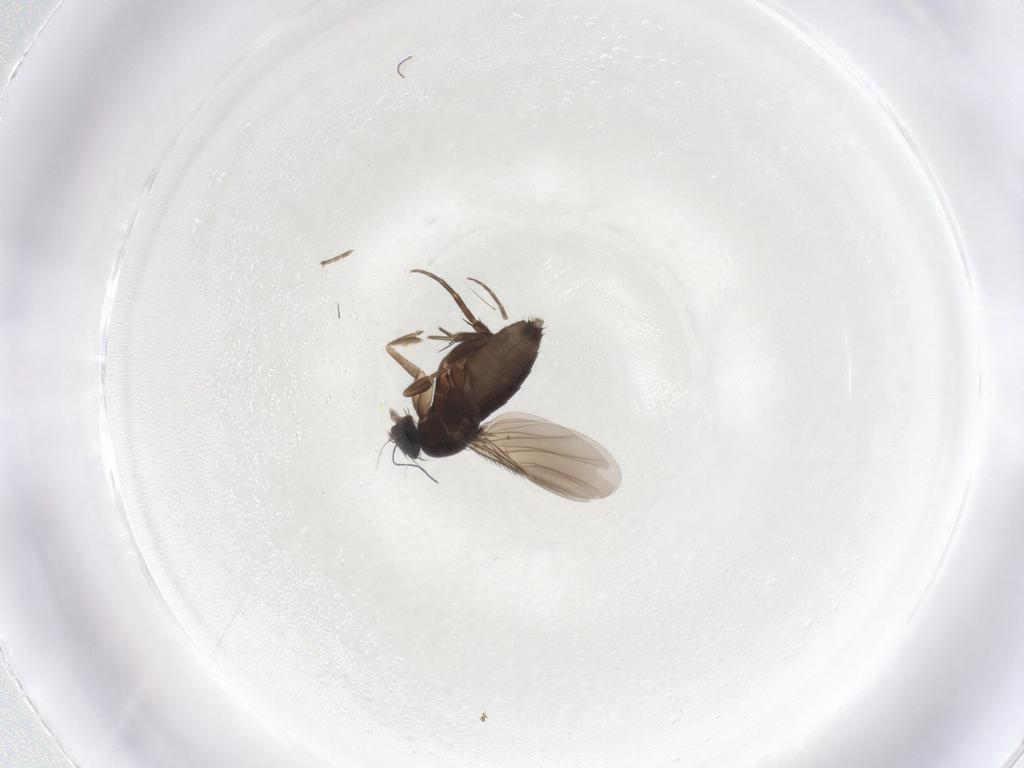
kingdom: Animalia
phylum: Arthropoda
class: Insecta
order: Diptera
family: Phoridae
